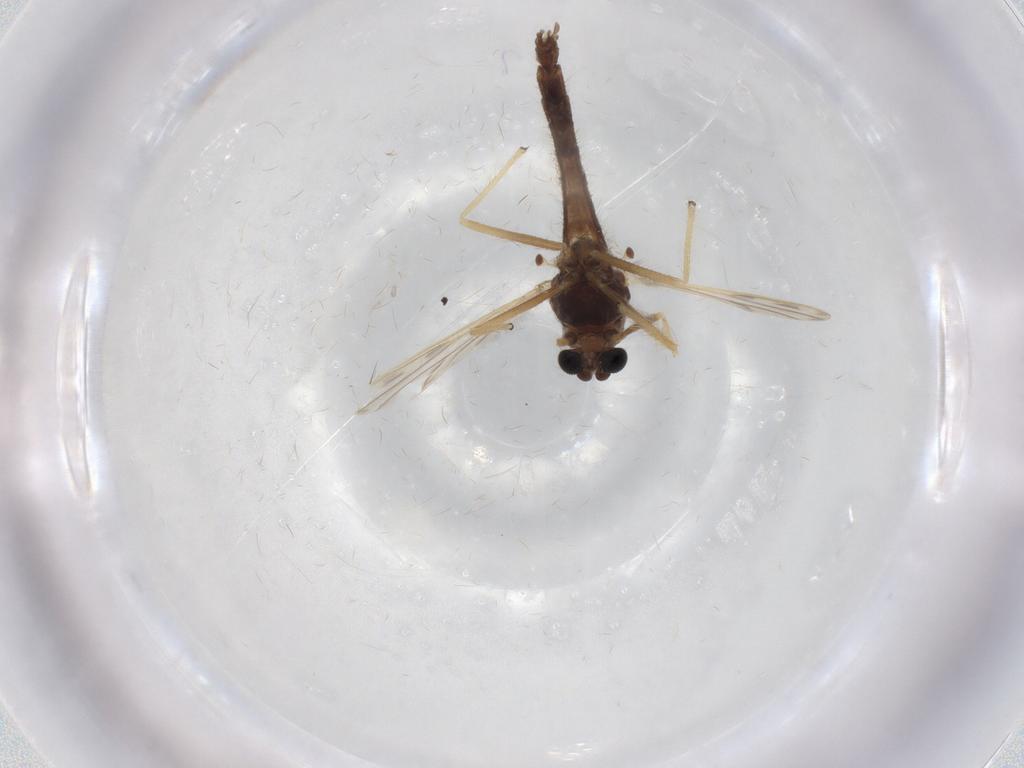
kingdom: Animalia
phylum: Arthropoda
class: Insecta
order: Diptera
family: Chironomidae
